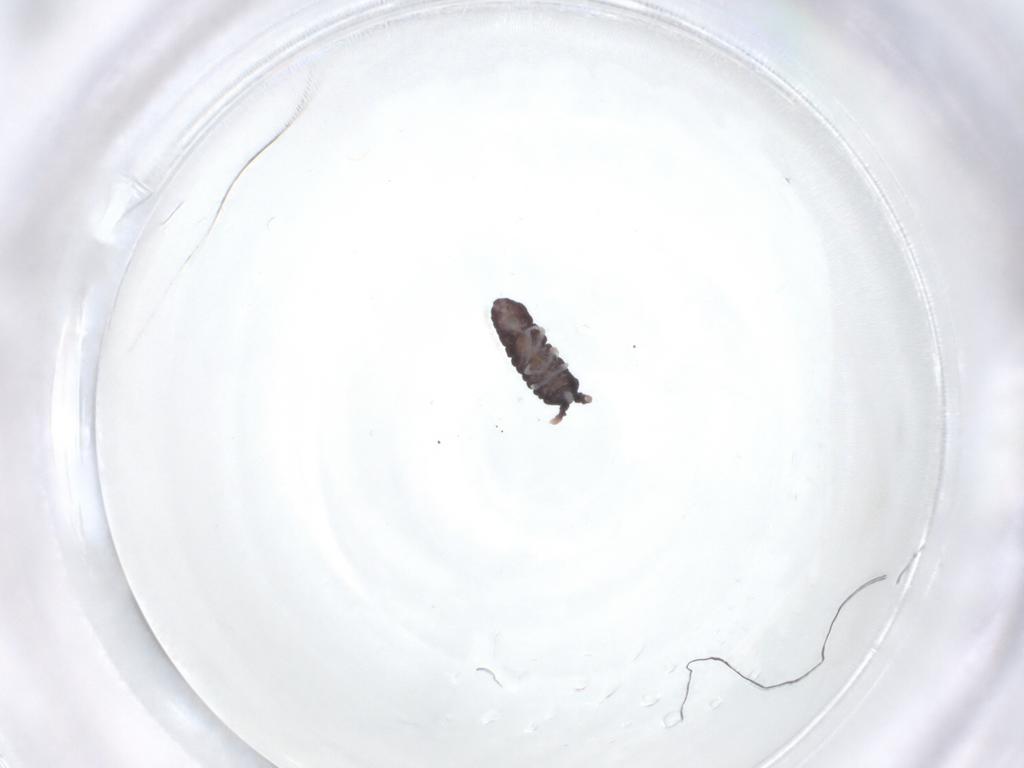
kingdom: Animalia
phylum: Arthropoda
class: Collembola
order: Poduromorpha
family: Neanuridae
